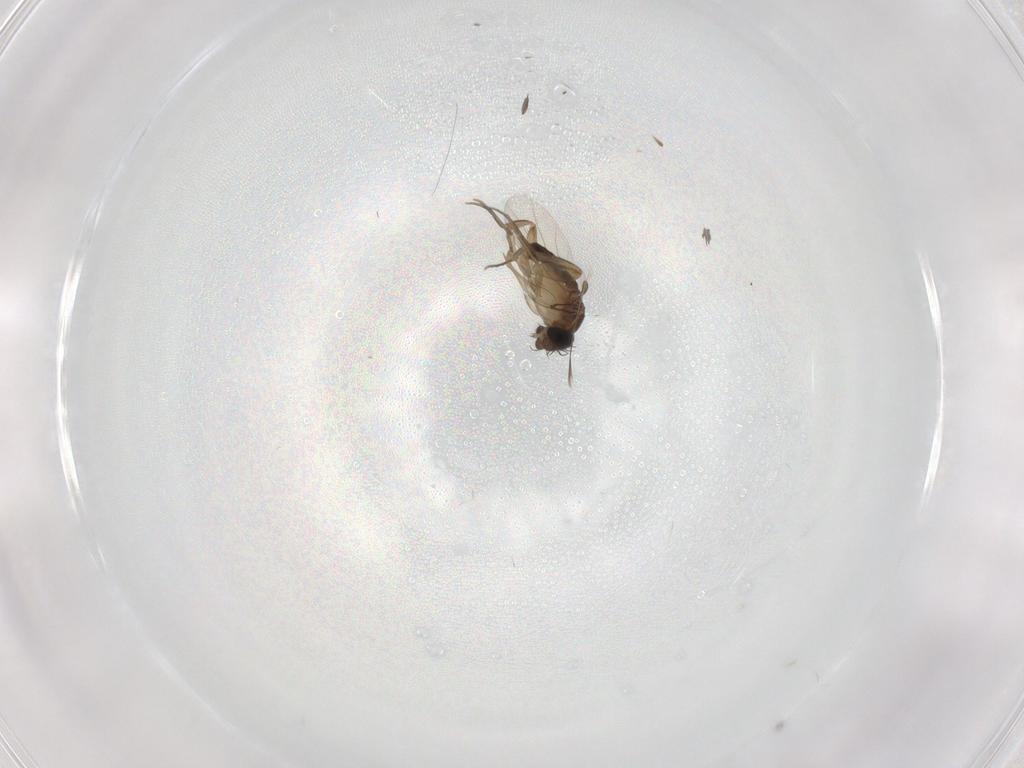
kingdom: Animalia
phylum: Arthropoda
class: Insecta
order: Diptera
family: Phoridae
